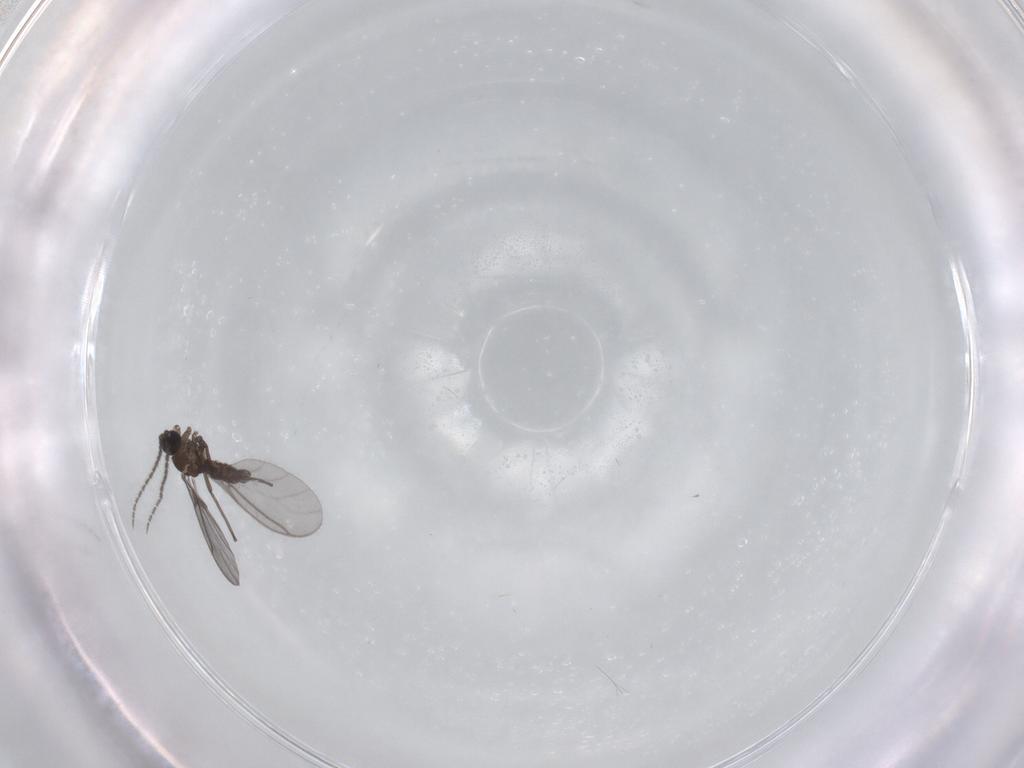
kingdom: Animalia
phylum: Arthropoda
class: Insecta
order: Diptera
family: Sciaridae
